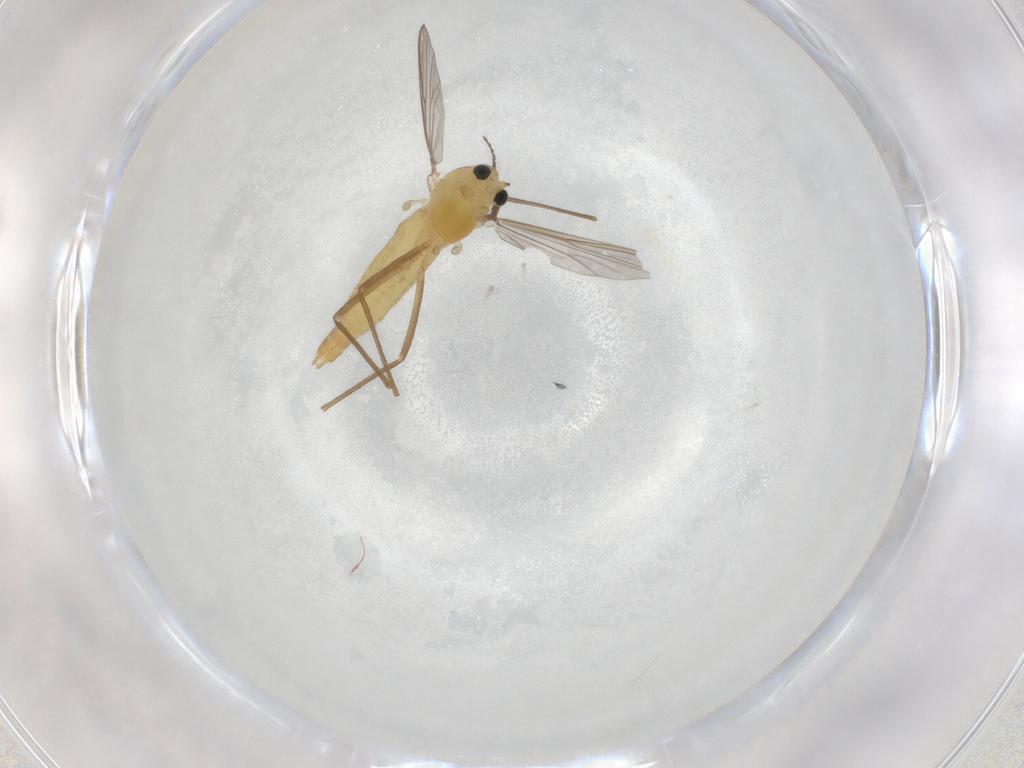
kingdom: Animalia
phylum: Arthropoda
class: Insecta
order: Diptera
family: Chironomidae
